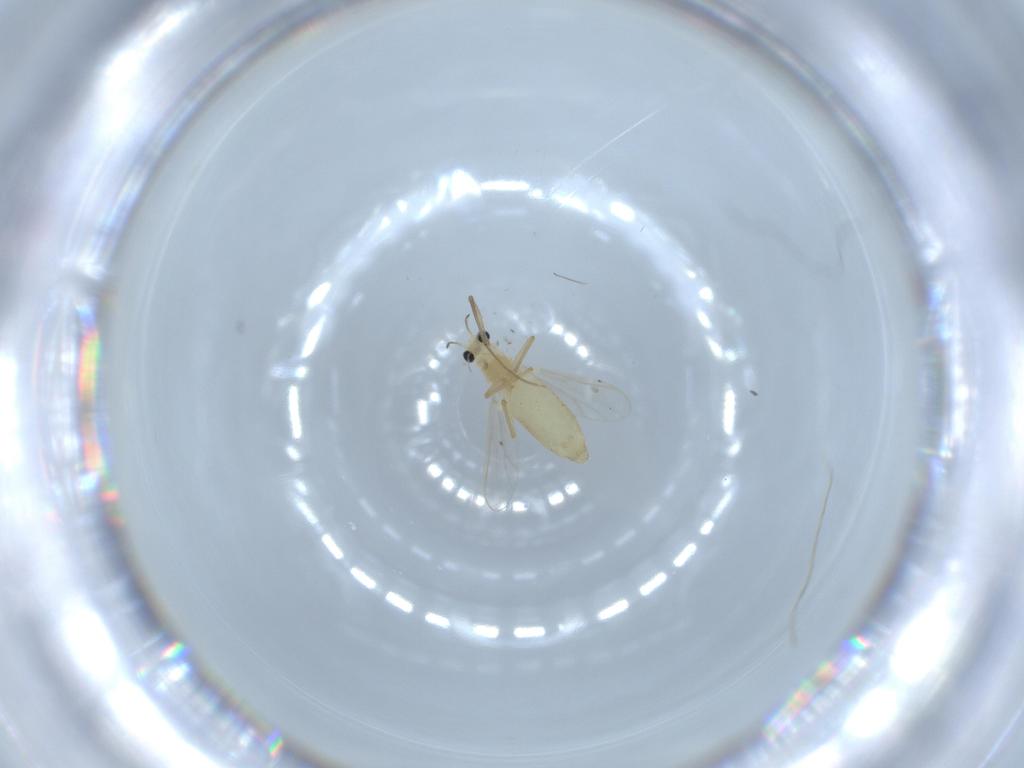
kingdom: Animalia
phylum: Arthropoda
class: Insecta
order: Diptera
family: Chironomidae
